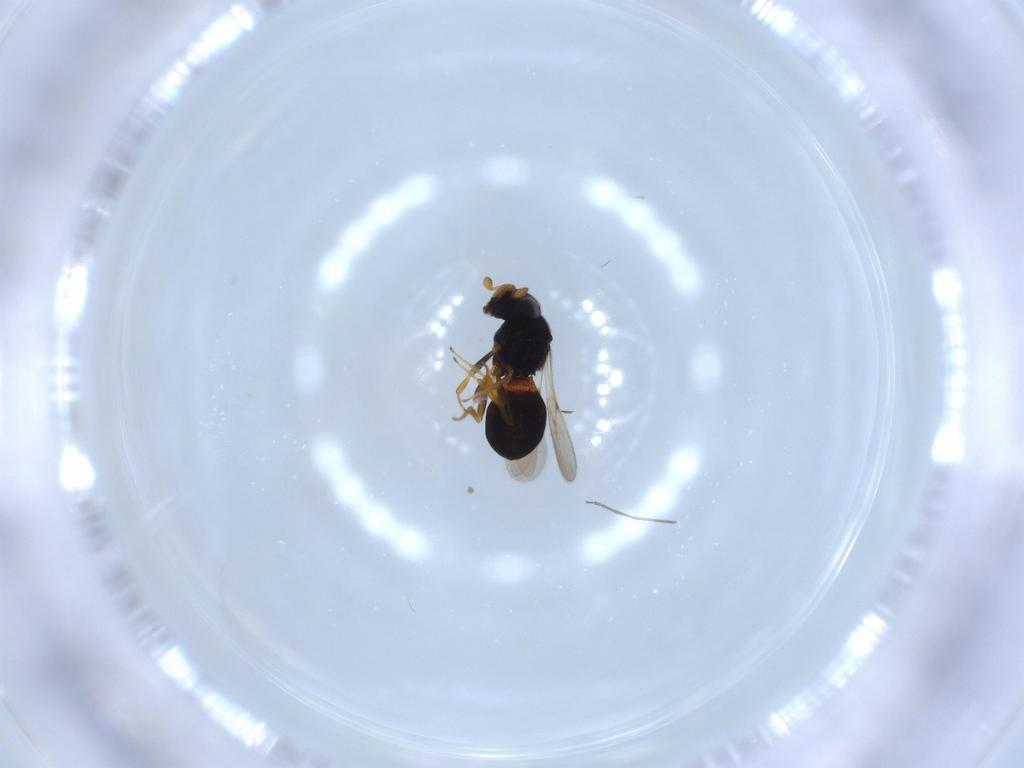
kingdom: Animalia
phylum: Arthropoda
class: Insecta
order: Hymenoptera
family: Scelionidae
